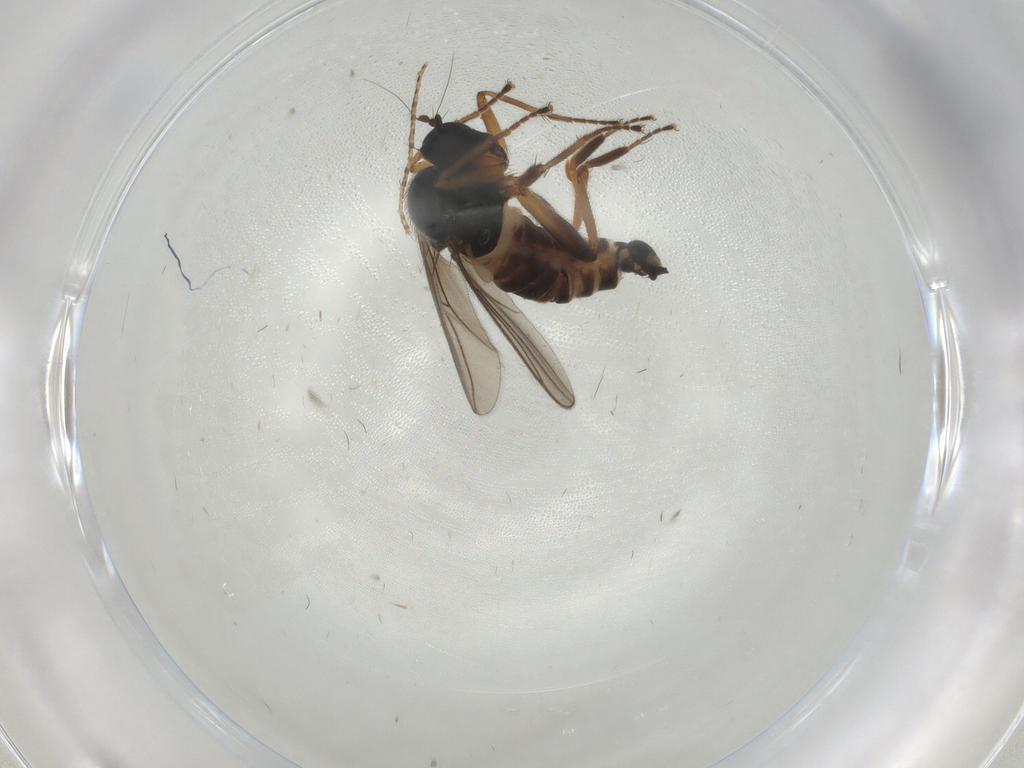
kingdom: Animalia
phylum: Arthropoda
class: Insecta
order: Diptera
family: Hybotidae
